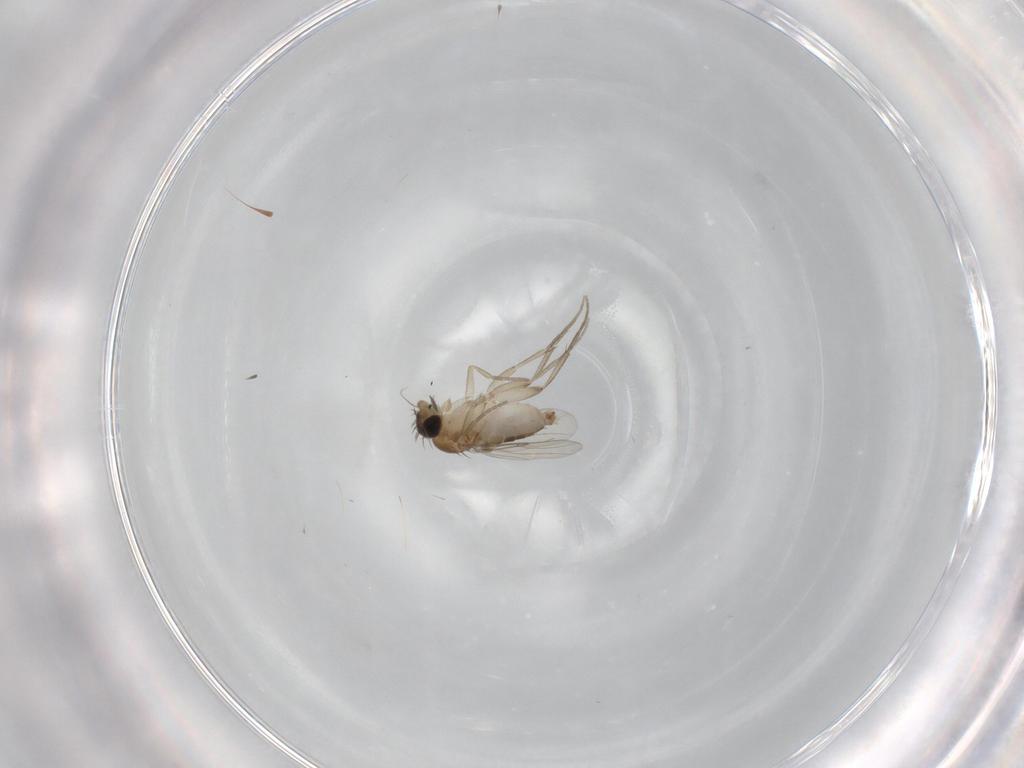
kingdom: Animalia
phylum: Arthropoda
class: Insecta
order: Diptera
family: Phoridae
